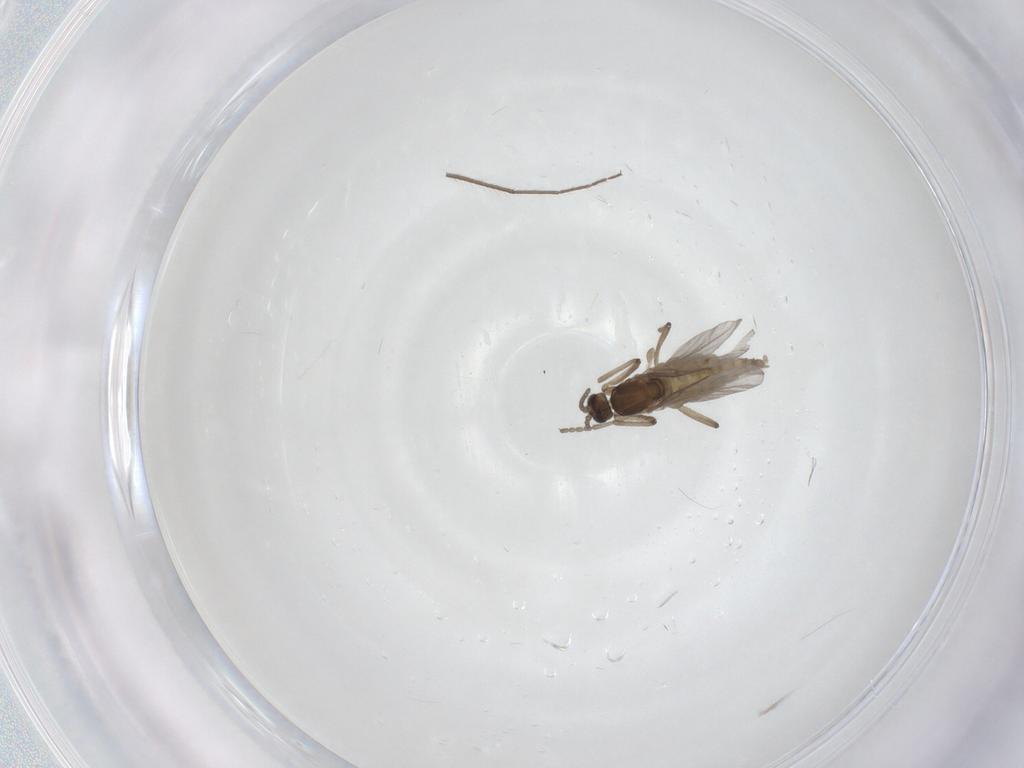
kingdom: Animalia
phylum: Arthropoda
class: Insecta
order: Diptera
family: Cecidomyiidae
